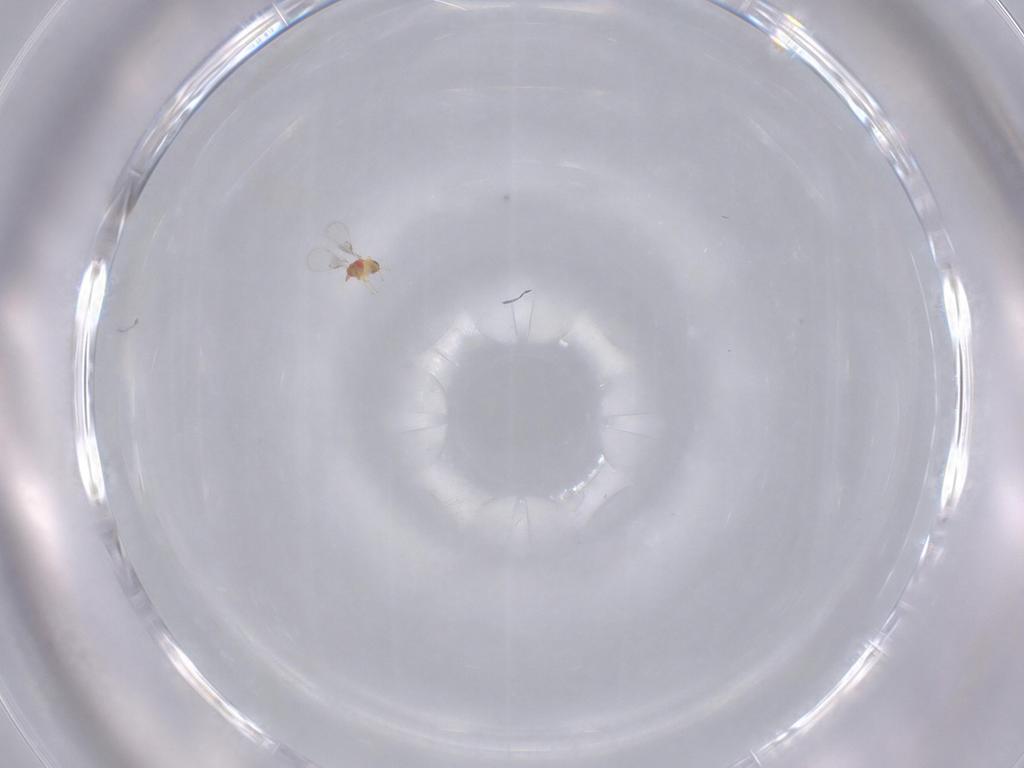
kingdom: Animalia
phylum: Arthropoda
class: Insecta
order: Hymenoptera
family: Trichogrammatidae
